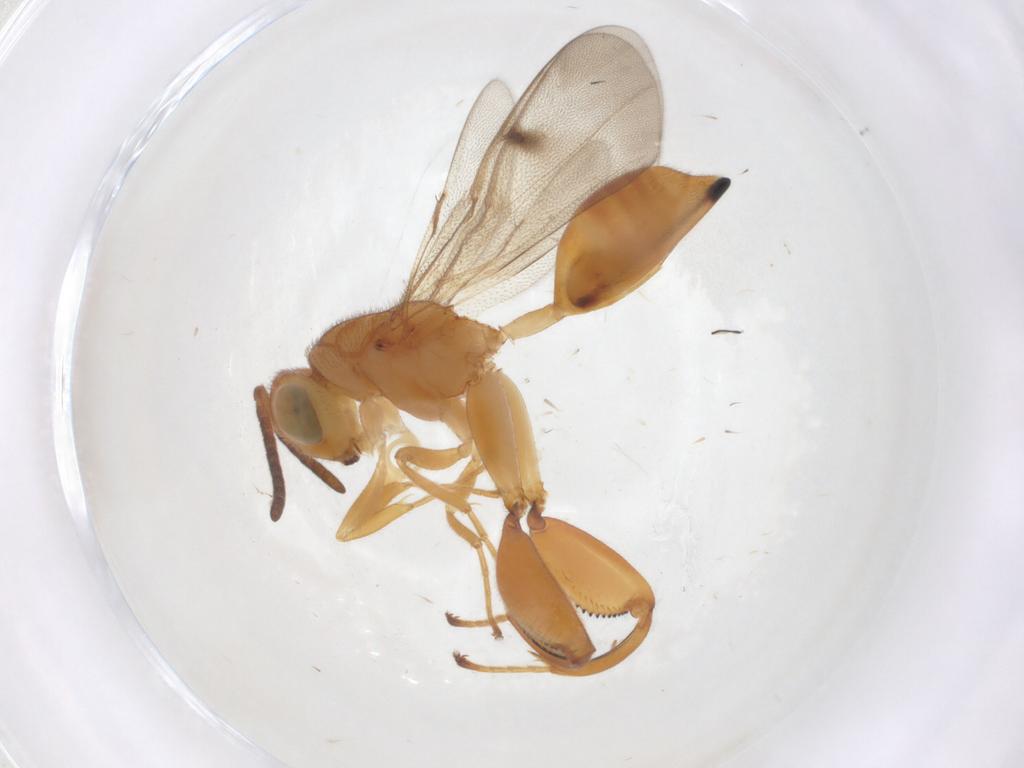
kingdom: Animalia
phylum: Arthropoda
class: Insecta
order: Hymenoptera
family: Chalcididae
